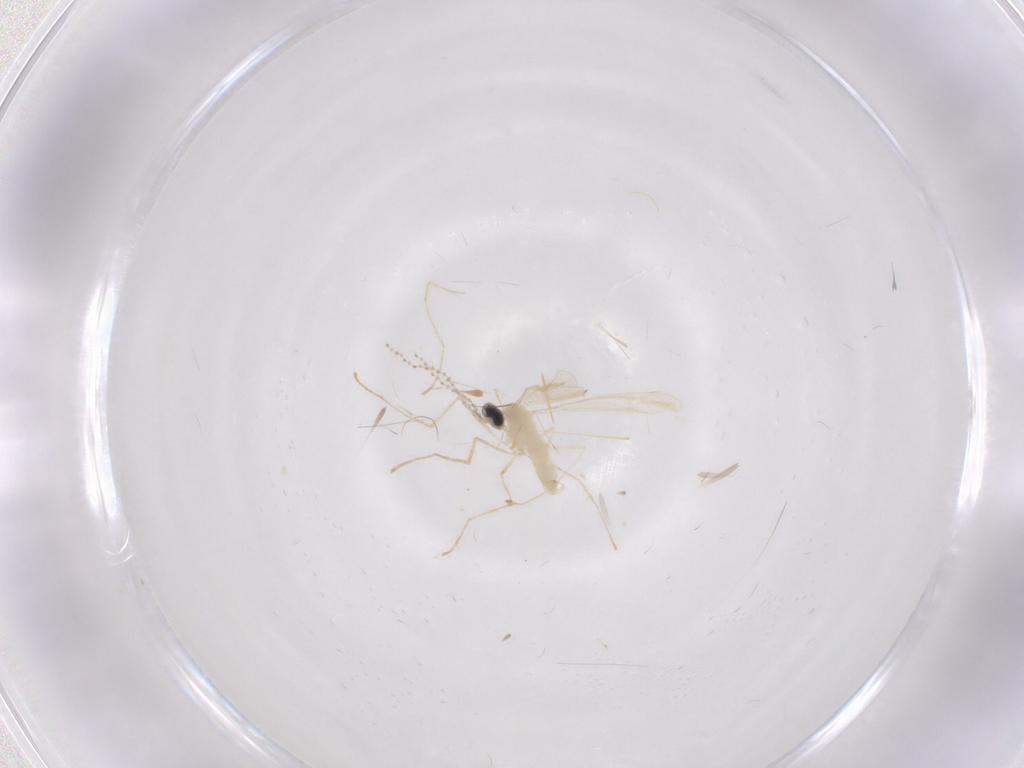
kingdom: Animalia
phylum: Arthropoda
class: Insecta
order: Diptera
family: Cecidomyiidae
